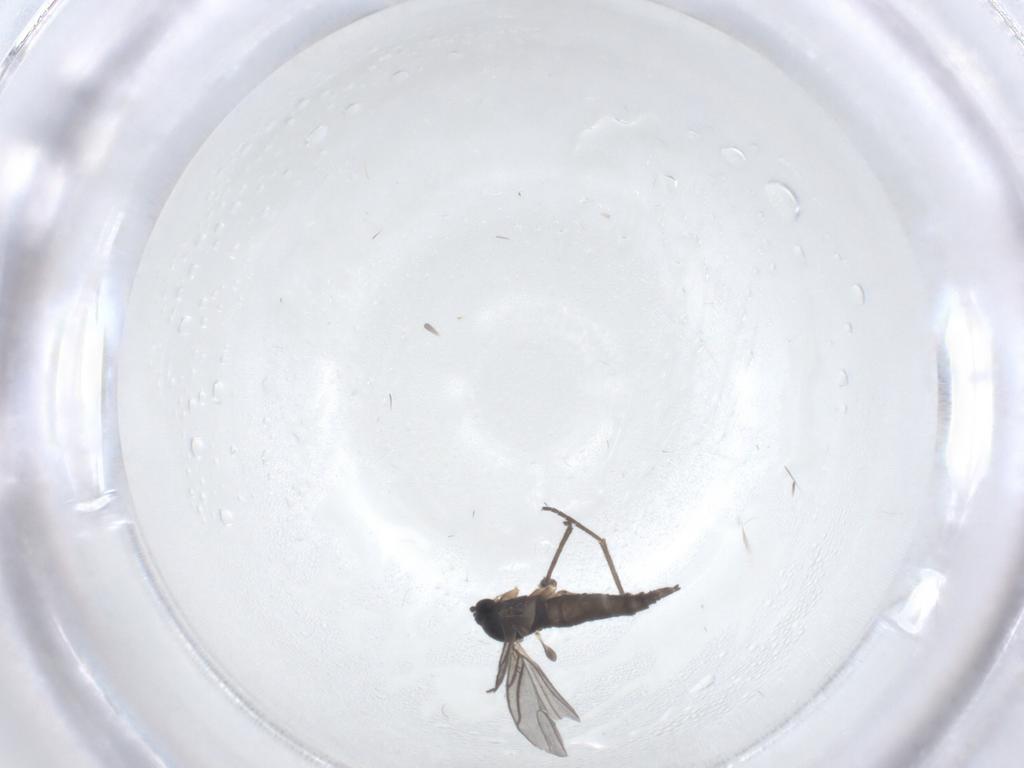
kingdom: Animalia
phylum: Arthropoda
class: Insecta
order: Diptera
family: Sciaridae
